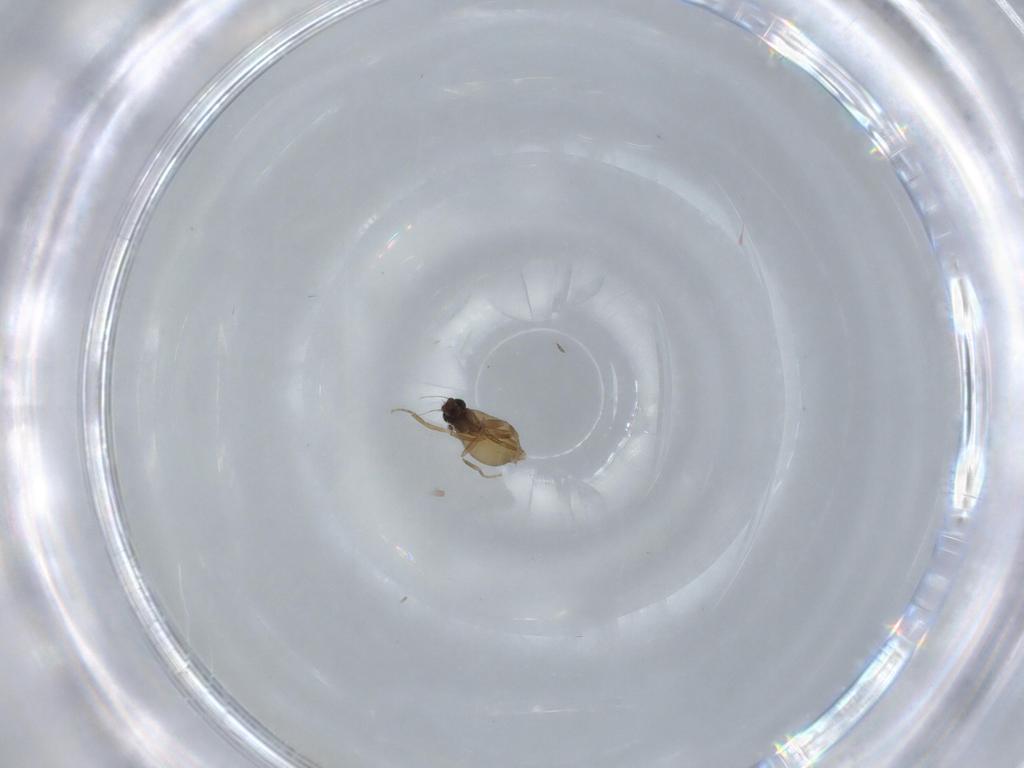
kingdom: Animalia
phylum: Arthropoda
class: Insecta
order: Diptera
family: Phoridae
